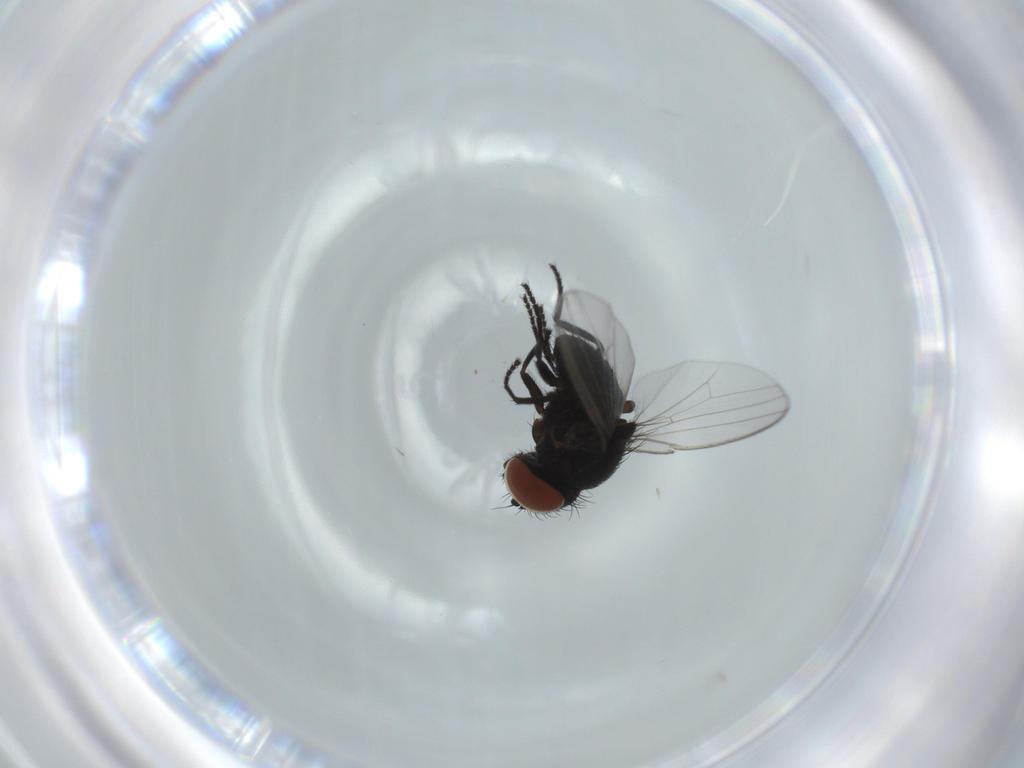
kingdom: Animalia
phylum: Arthropoda
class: Insecta
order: Diptera
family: Milichiidae
